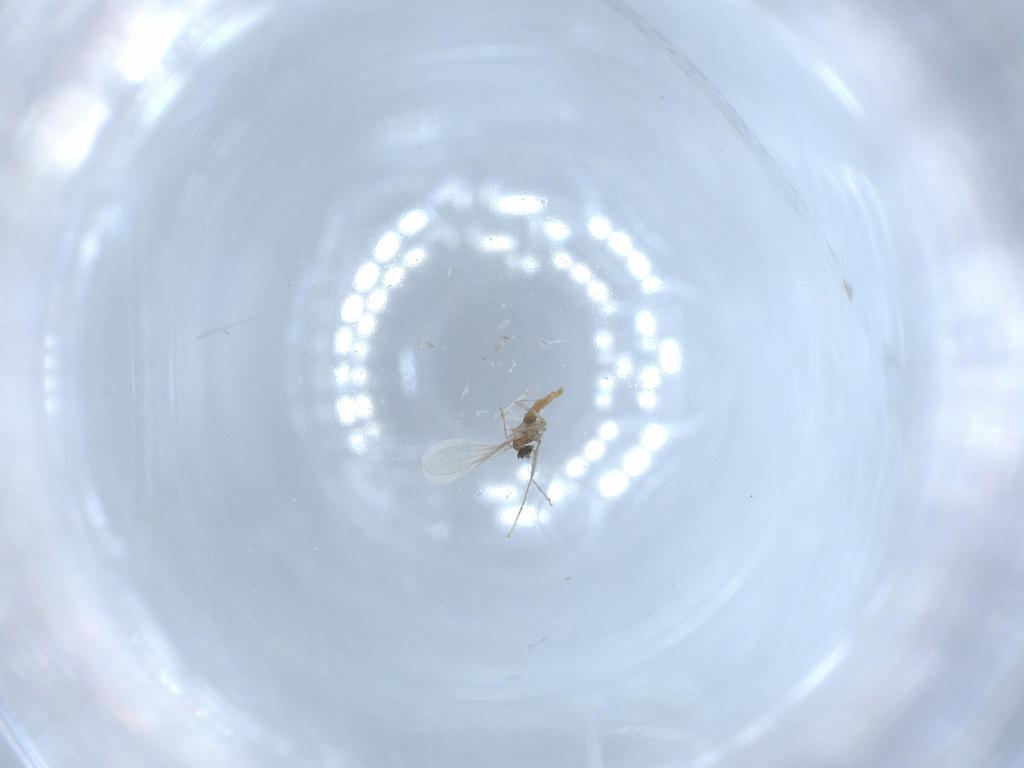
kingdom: Animalia
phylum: Arthropoda
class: Insecta
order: Diptera
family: Cecidomyiidae
